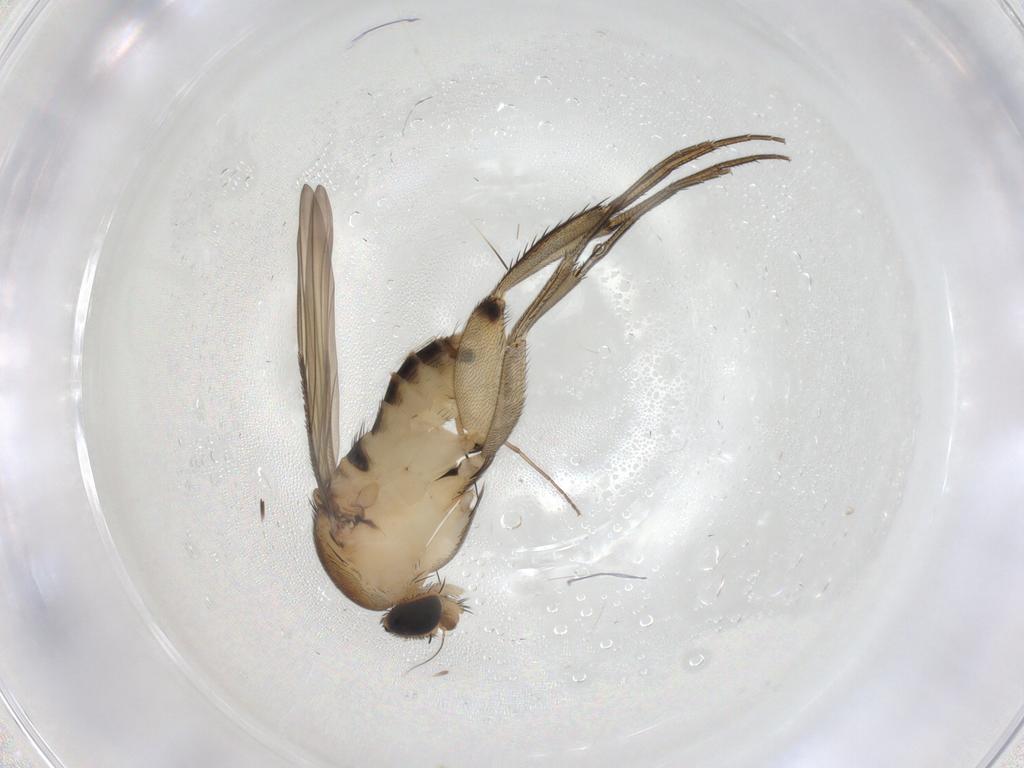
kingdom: Animalia
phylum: Arthropoda
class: Insecta
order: Diptera
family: Phoridae
